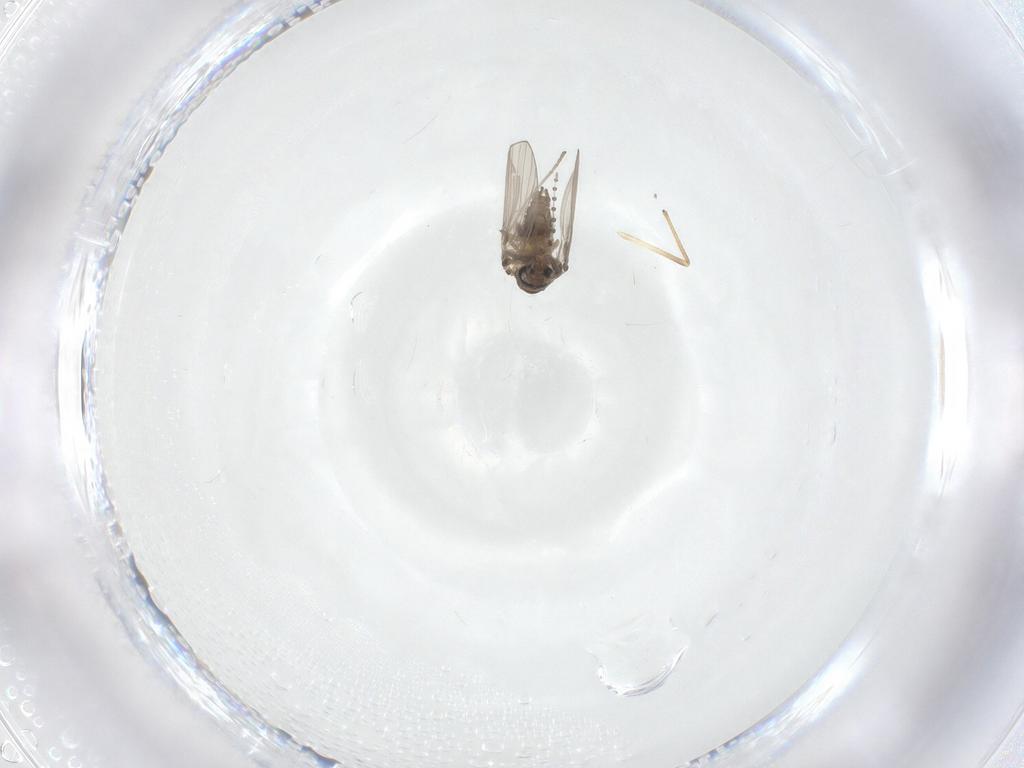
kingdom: Animalia
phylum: Arthropoda
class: Insecta
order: Diptera
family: Psychodidae
